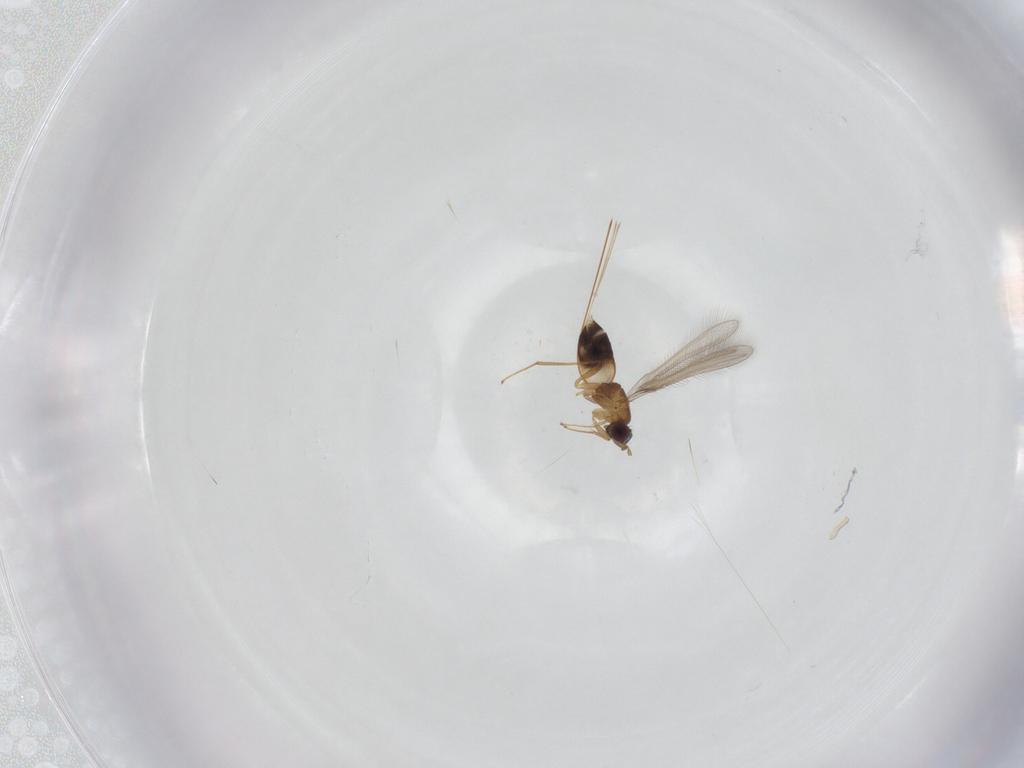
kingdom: Animalia
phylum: Arthropoda
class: Insecta
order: Hymenoptera
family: Mymaridae
